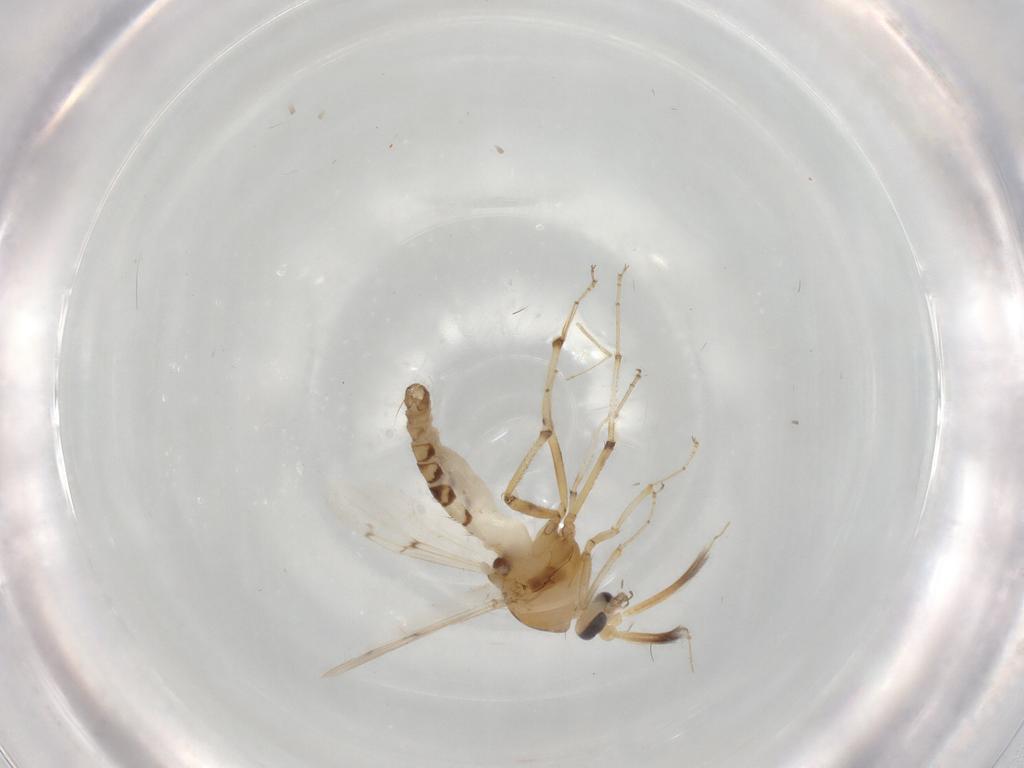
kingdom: Animalia
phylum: Arthropoda
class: Insecta
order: Diptera
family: Ceratopogonidae
